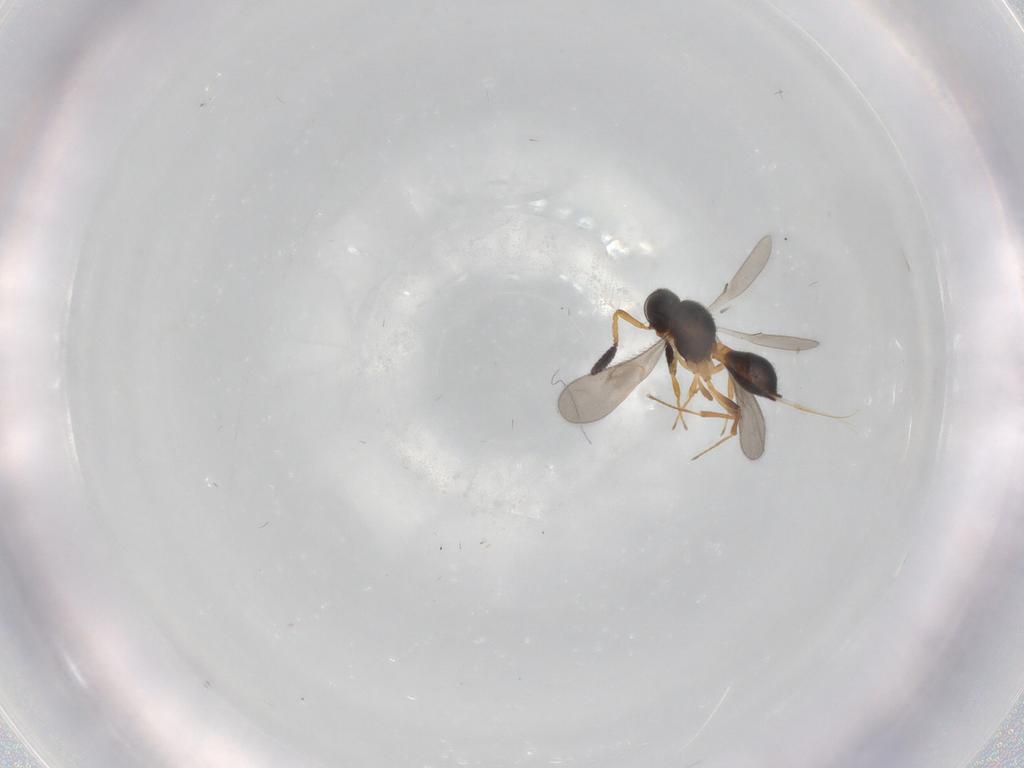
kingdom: Animalia
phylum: Arthropoda
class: Insecta
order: Hymenoptera
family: Scelionidae
